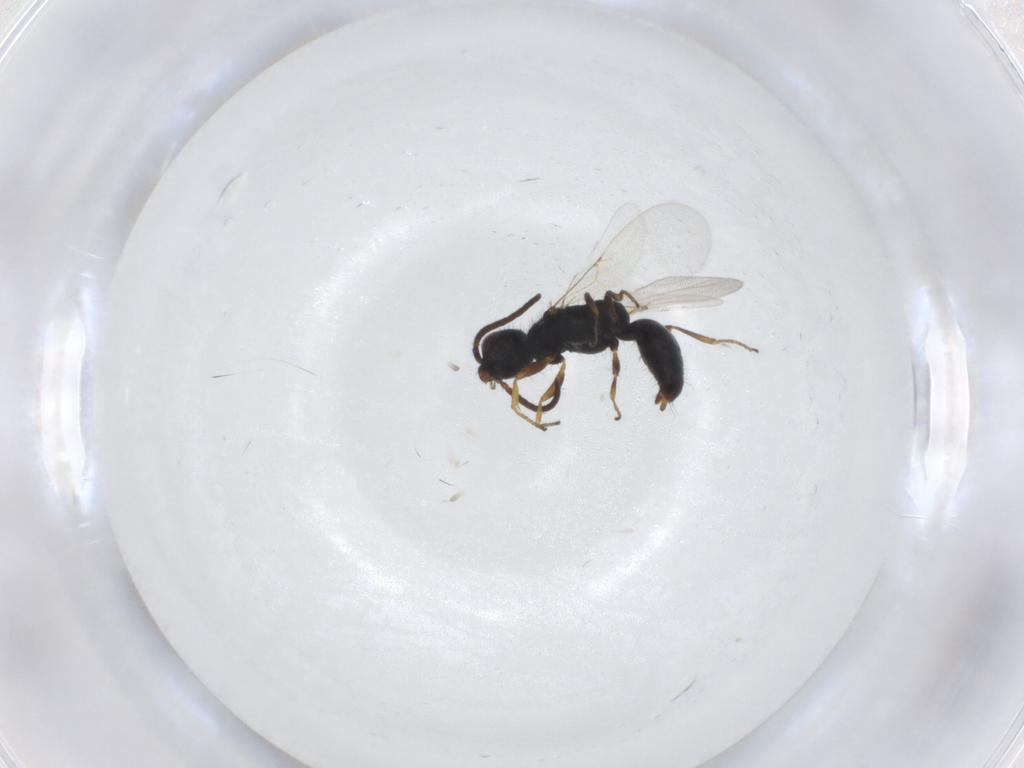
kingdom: Animalia
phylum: Arthropoda
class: Insecta
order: Hymenoptera
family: Bethylidae
